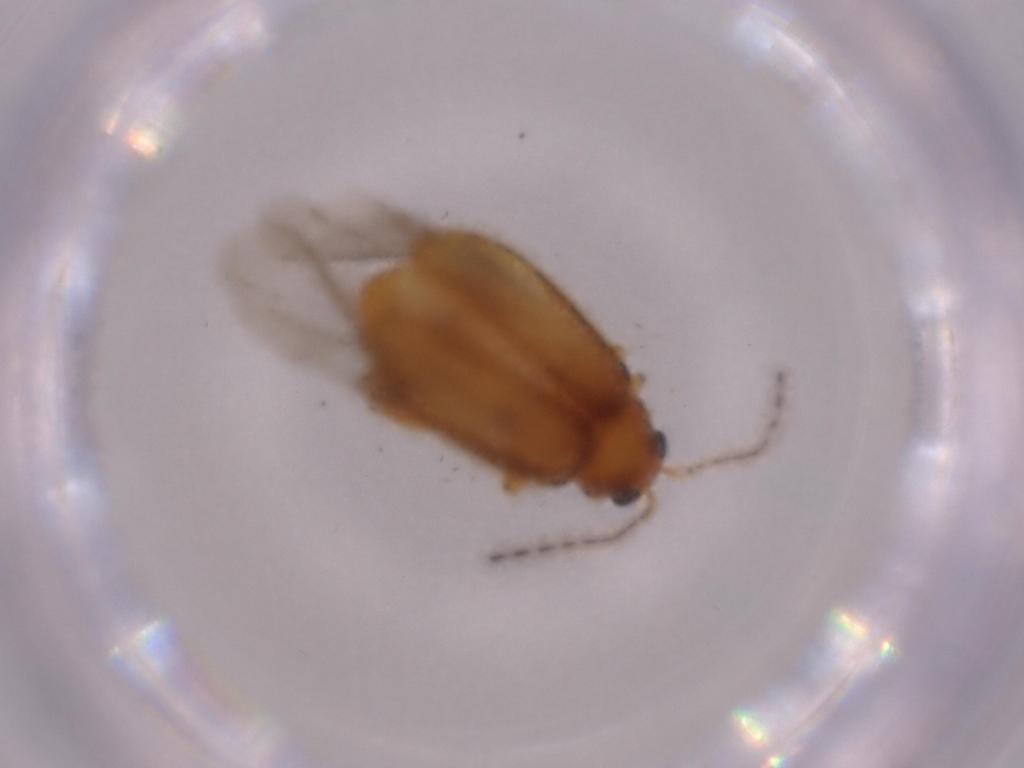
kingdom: Animalia
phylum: Arthropoda
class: Insecta
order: Coleoptera
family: Chrysomelidae
